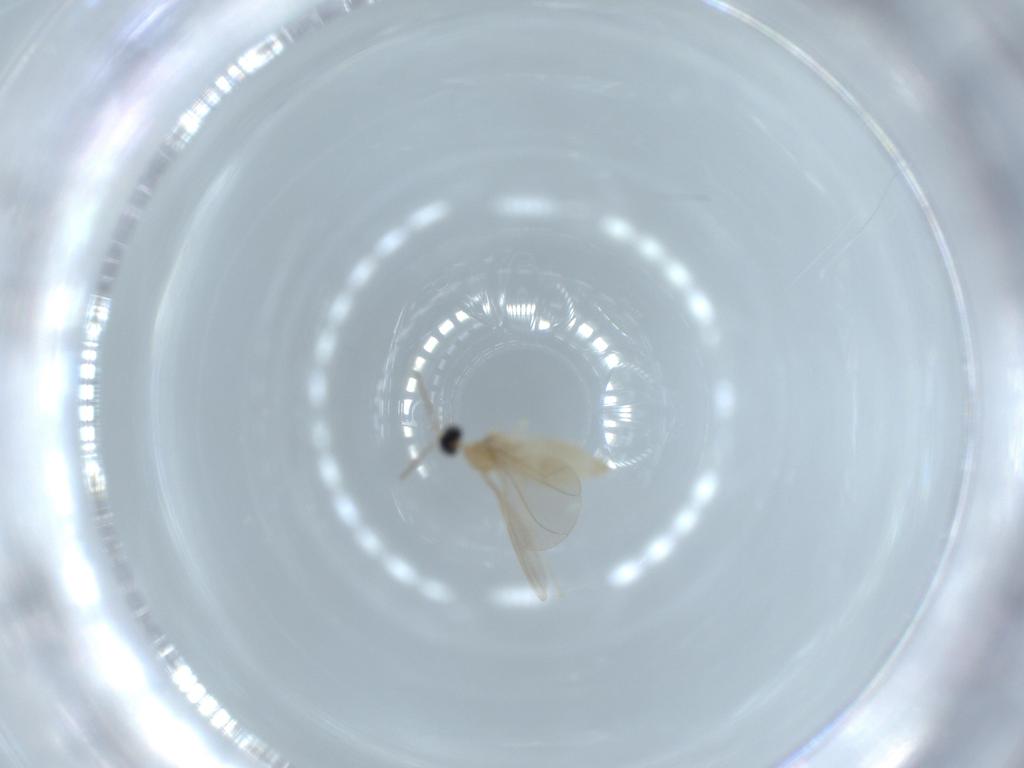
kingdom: Animalia
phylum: Arthropoda
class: Insecta
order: Diptera
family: Cecidomyiidae
